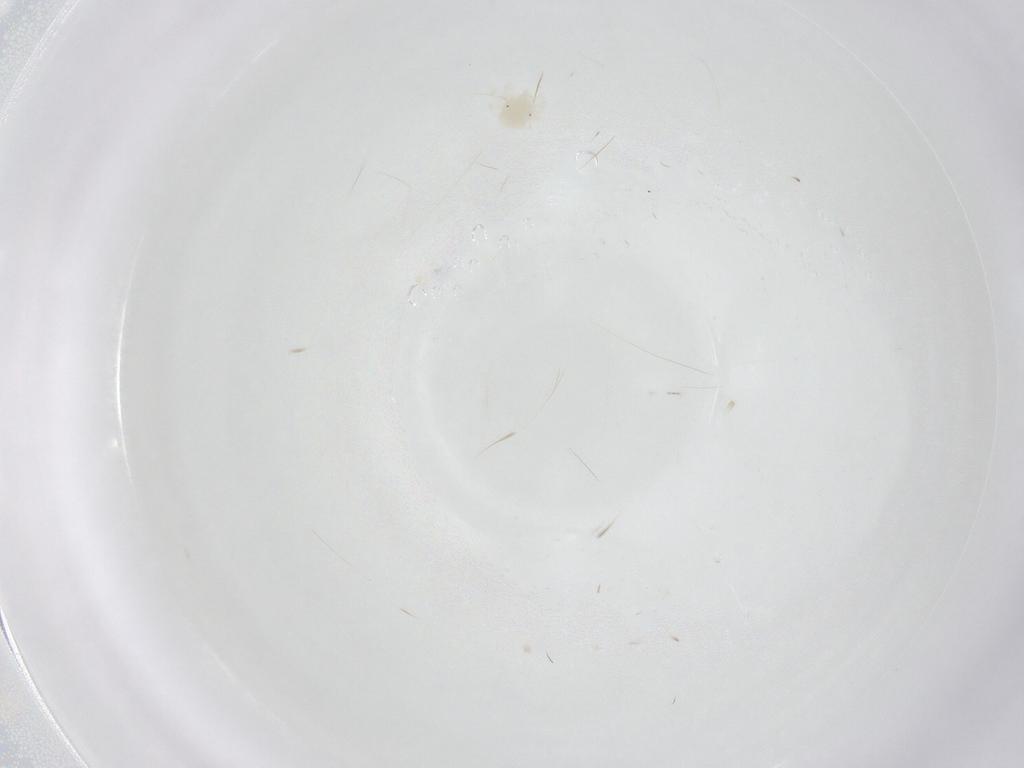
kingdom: Animalia
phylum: Arthropoda
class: Arachnida
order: Trombidiformes
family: Anystidae
